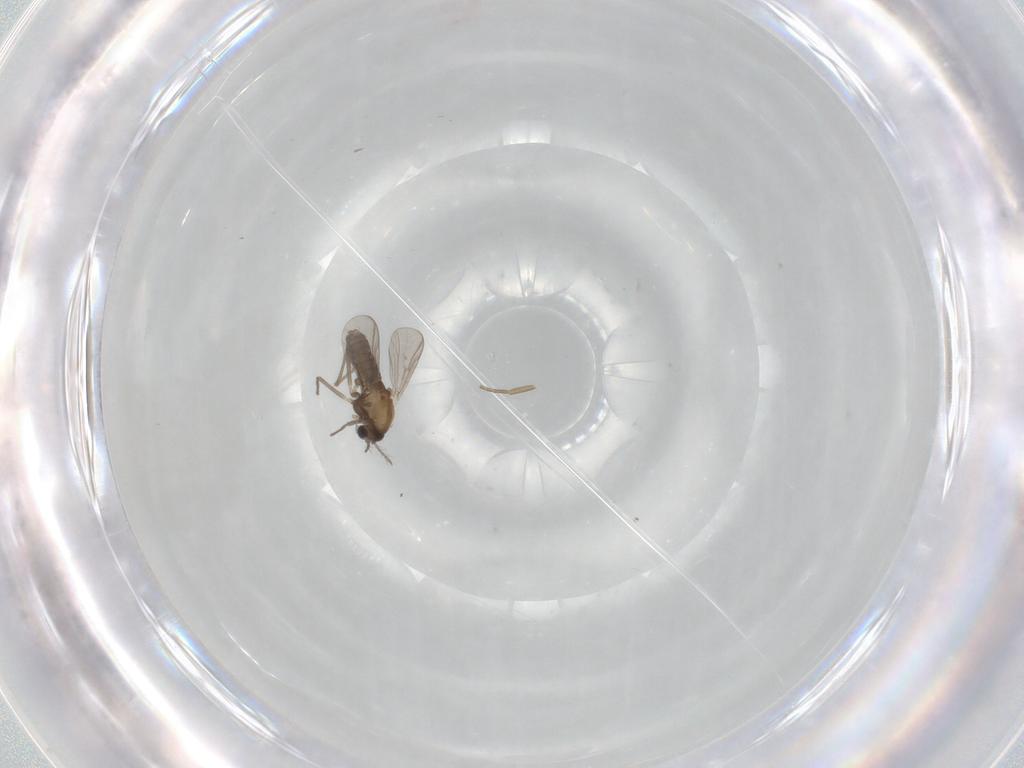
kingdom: Animalia
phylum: Arthropoda
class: Insecta
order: Diptera
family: Chironomidae
